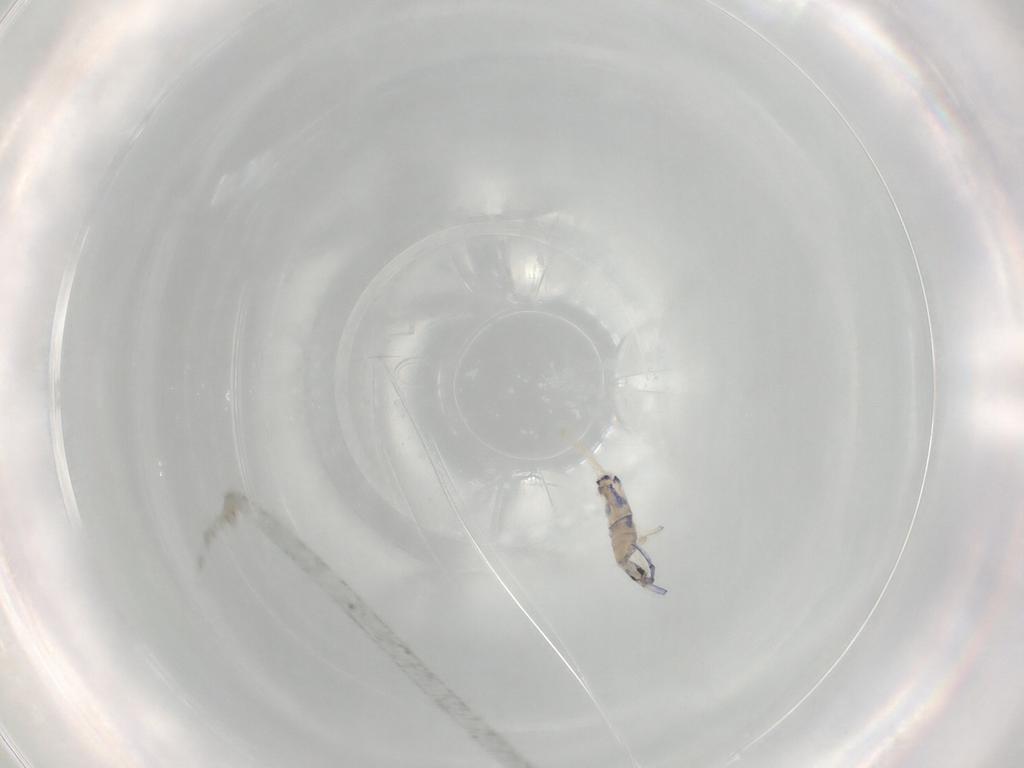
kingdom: Animalia
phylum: Arthropoda
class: Collembola
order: Entomobryomorpha
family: Entomobryidae
